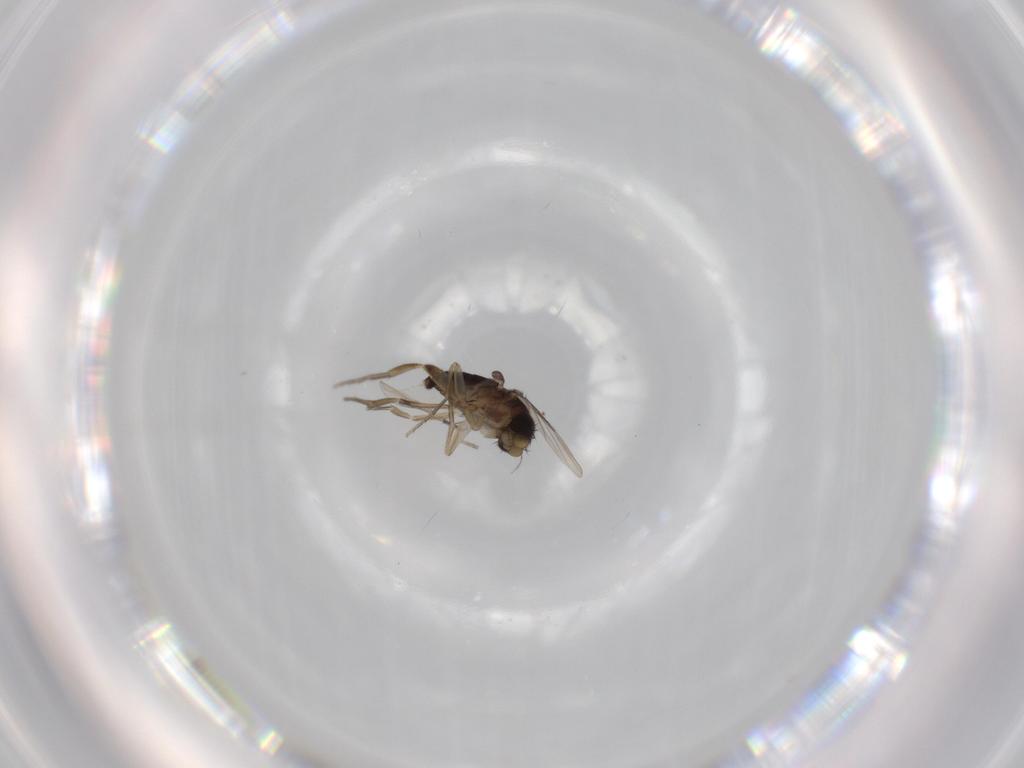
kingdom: Animalia
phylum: Arthropoda
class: Insecta
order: Diptera
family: Phoridae
